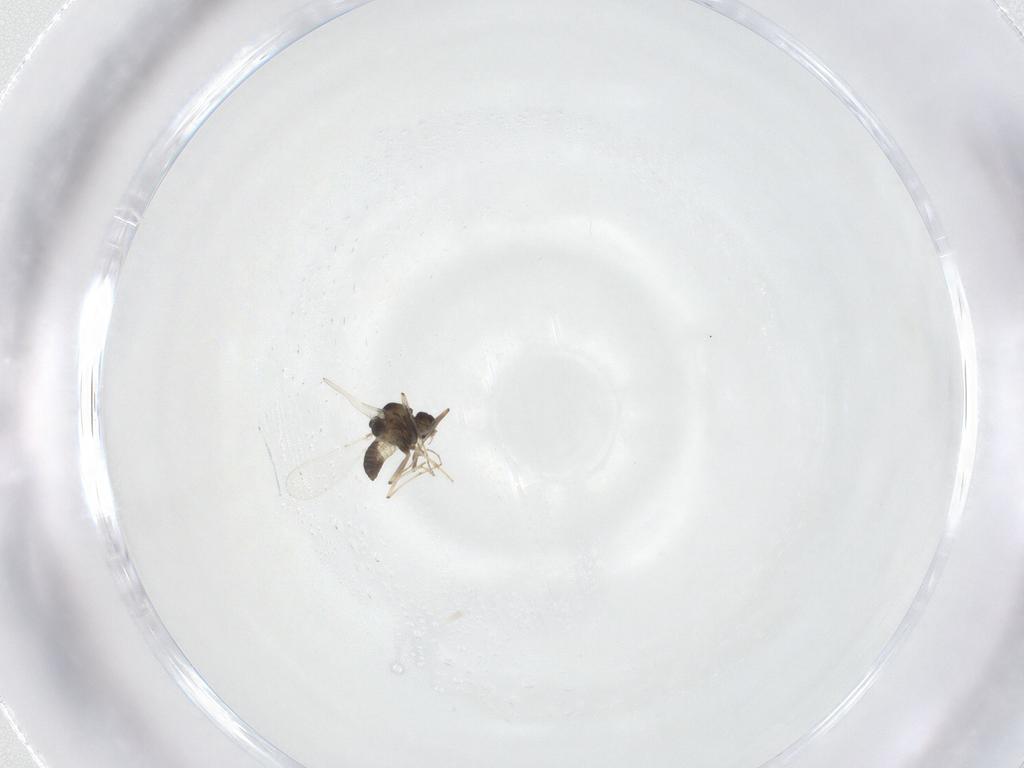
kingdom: Animalia
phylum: Arthropoda
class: Insecta
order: Diptera
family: Chironomidae
